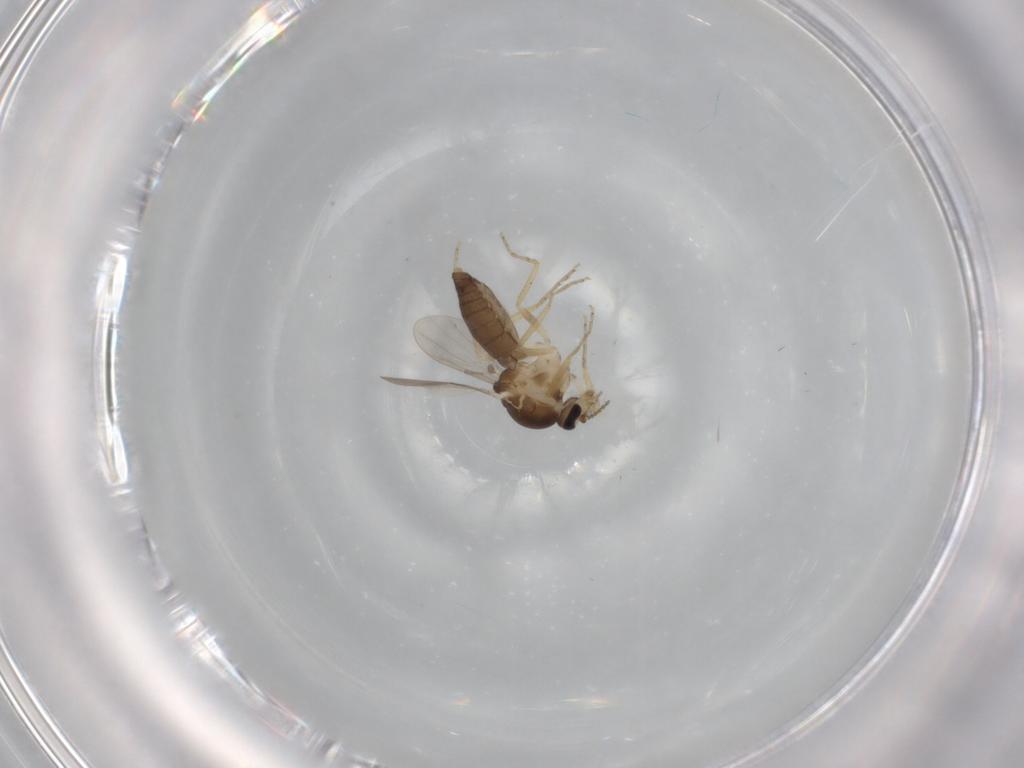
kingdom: Animalia
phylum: Arthropoda
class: Insecta
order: Diptera
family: Ceratopogonidae
